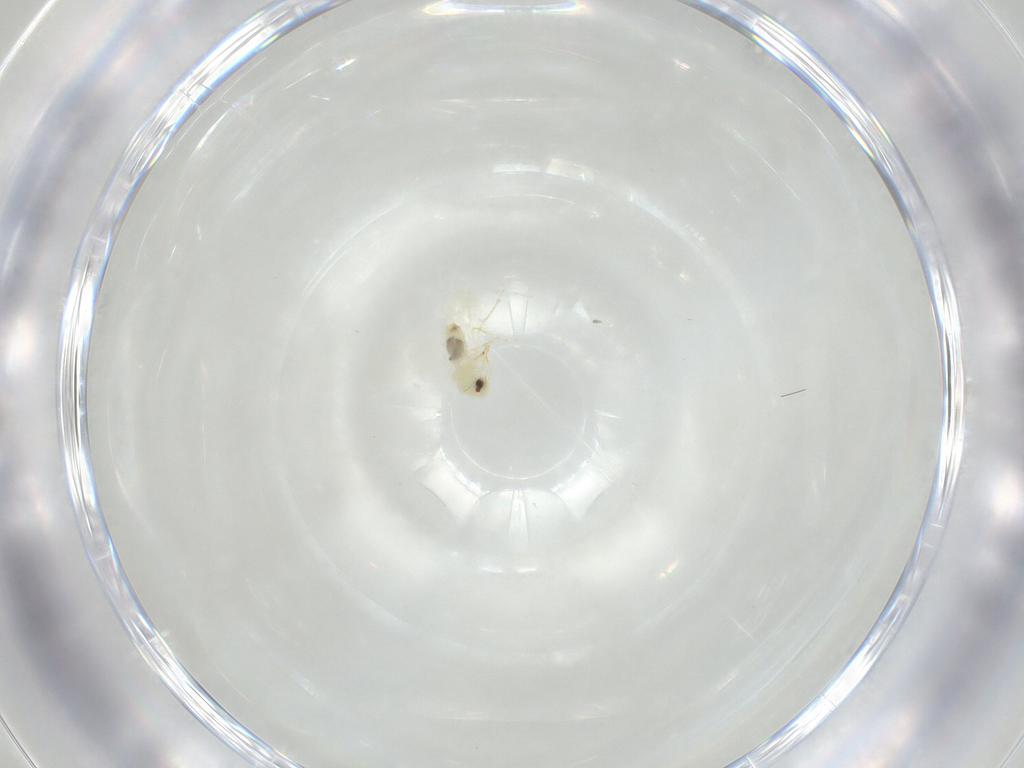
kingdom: Animalia
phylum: Arthropoda
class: Insecta
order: Hemiptera
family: Aleyrodidae
